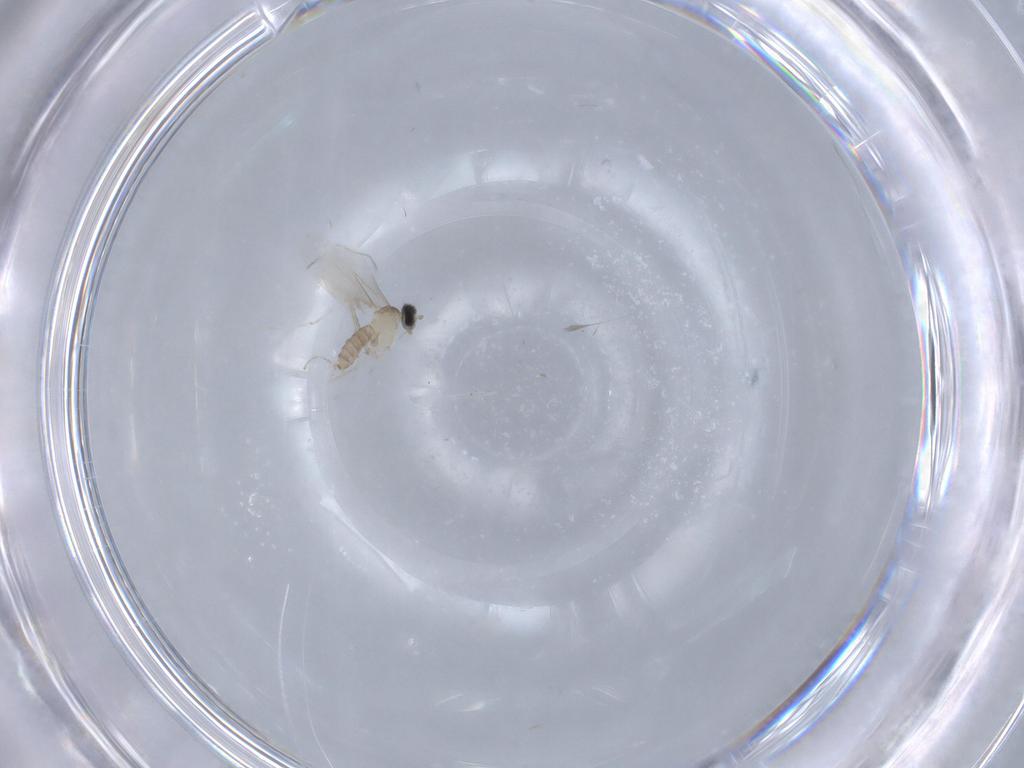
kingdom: Animalia
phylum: Arthropoda
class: Insecta
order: Diptera
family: Cecidomyiidae
